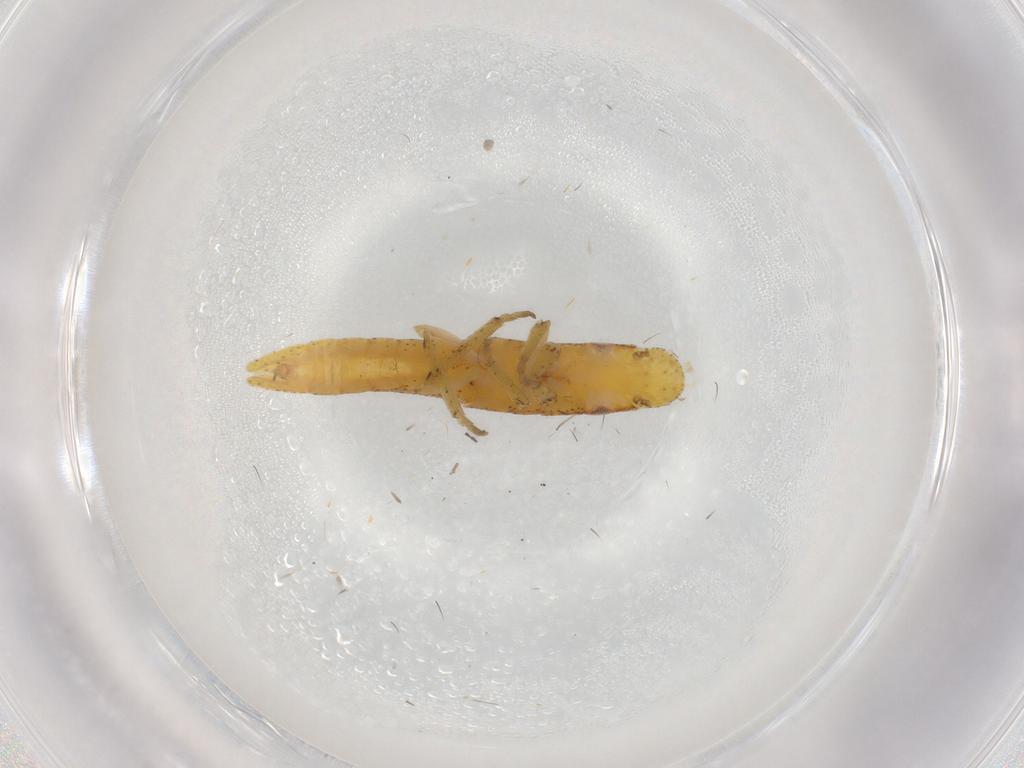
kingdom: Animalia
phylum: Arthropoda
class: Insecta
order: Hemiptera
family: Cicadellidae
